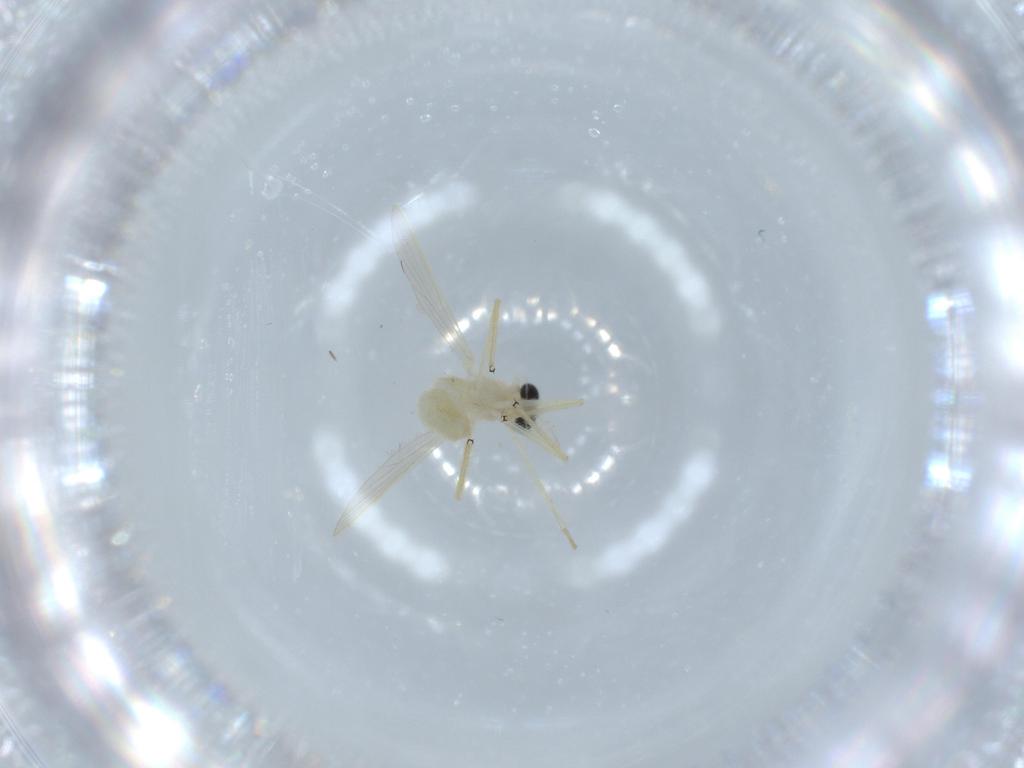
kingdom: Animalia
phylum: Arthropoda
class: Insecta
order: Diptera
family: Chironomidae
